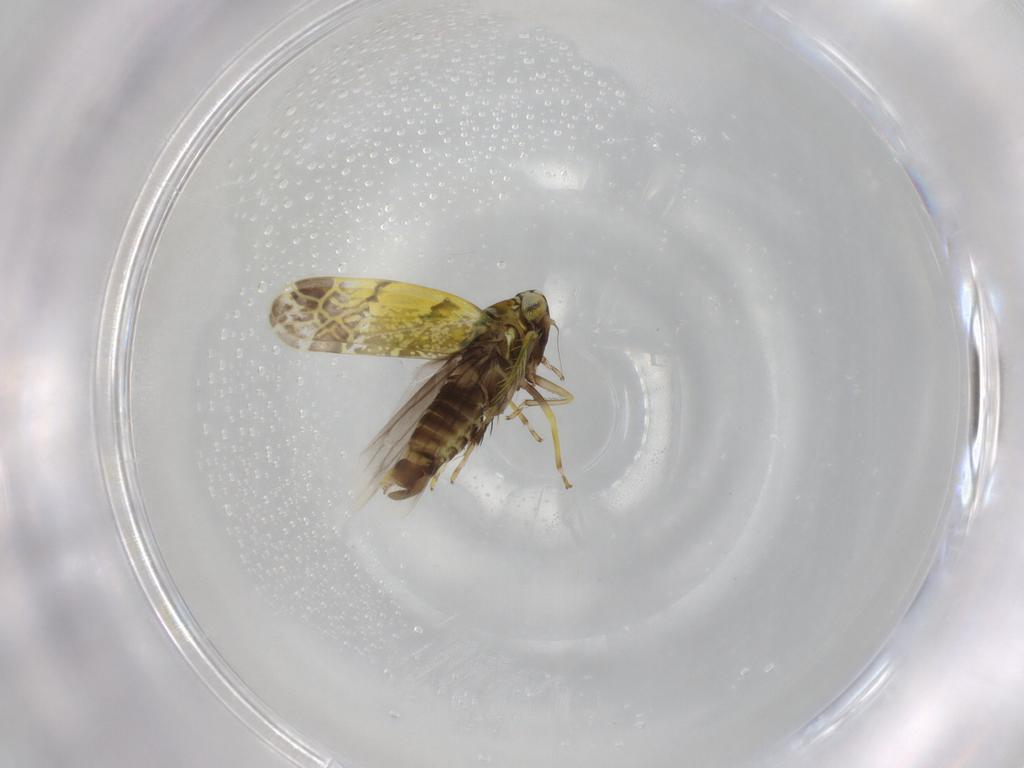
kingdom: Animalia
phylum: Arthropoda
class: Insecta
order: Hemiptera
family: Cicadellidae
